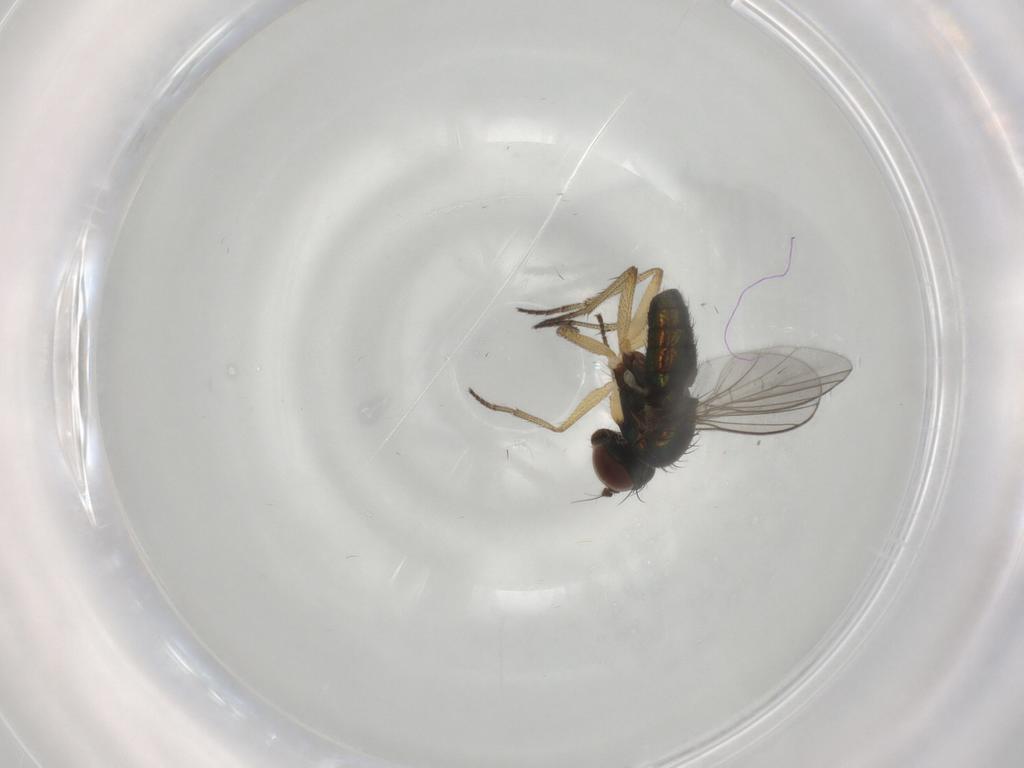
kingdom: Animalia
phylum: Arthropoda
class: Insecta
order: Diptera
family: Dolichopodidae
